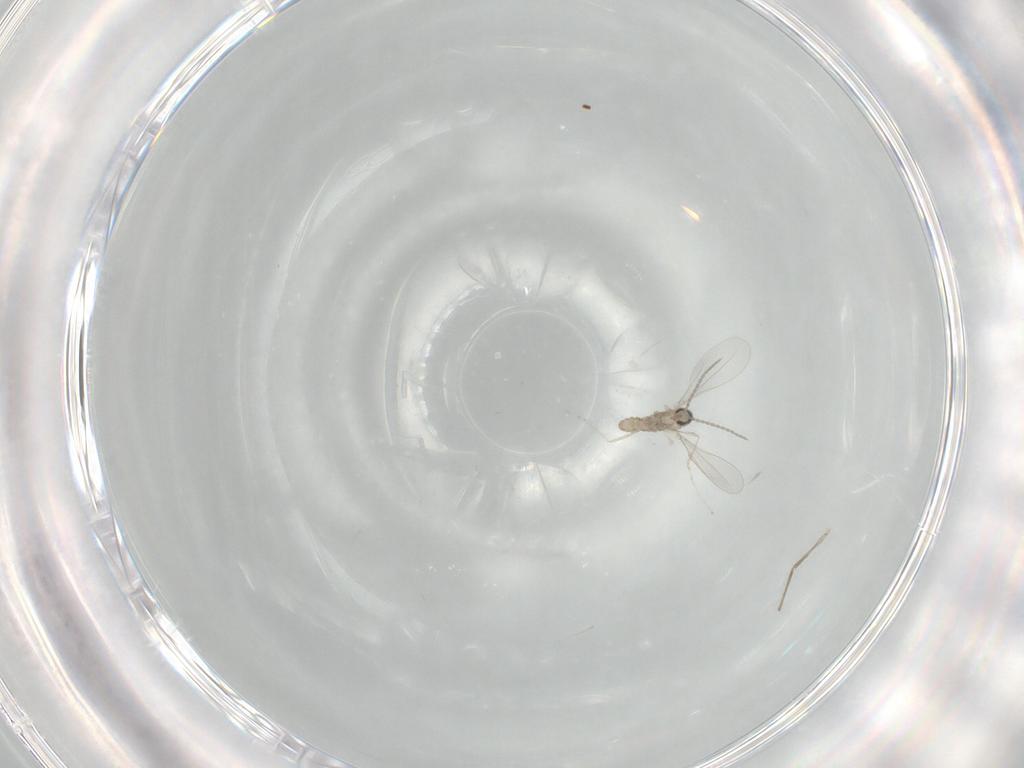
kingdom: Animalia
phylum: Arthropoda
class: Insecta
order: Diptera
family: Cecidomyiidae
